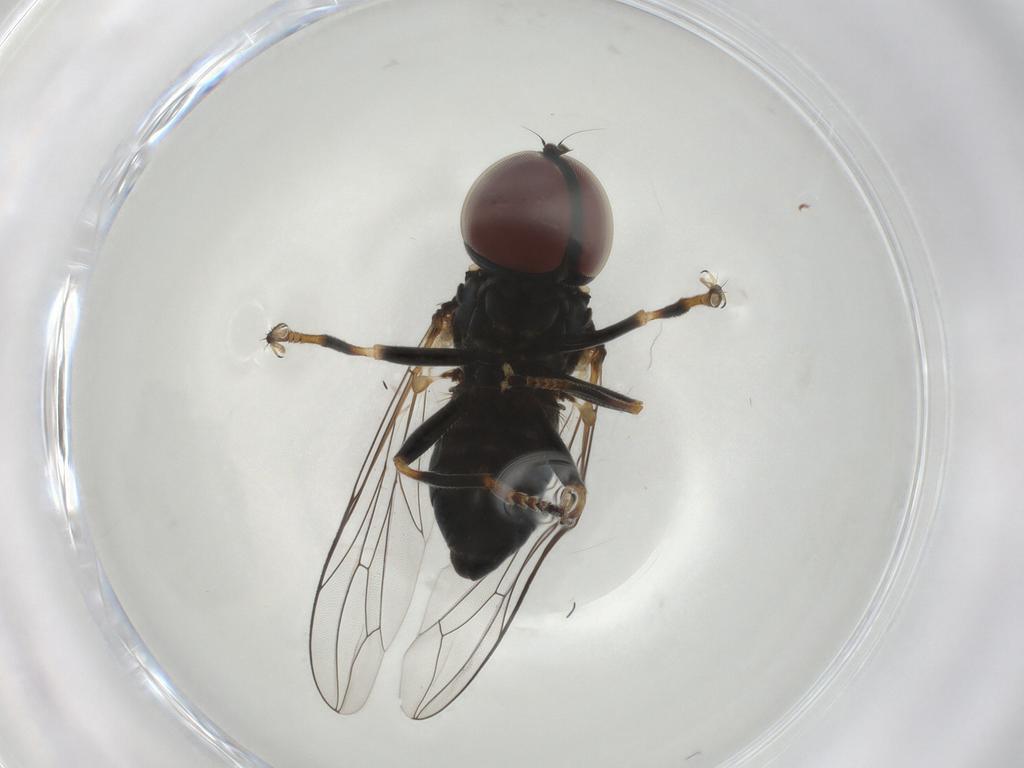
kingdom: Animalia
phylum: Arthropoda
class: Insecta
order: Diptera
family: Pipunculidae
